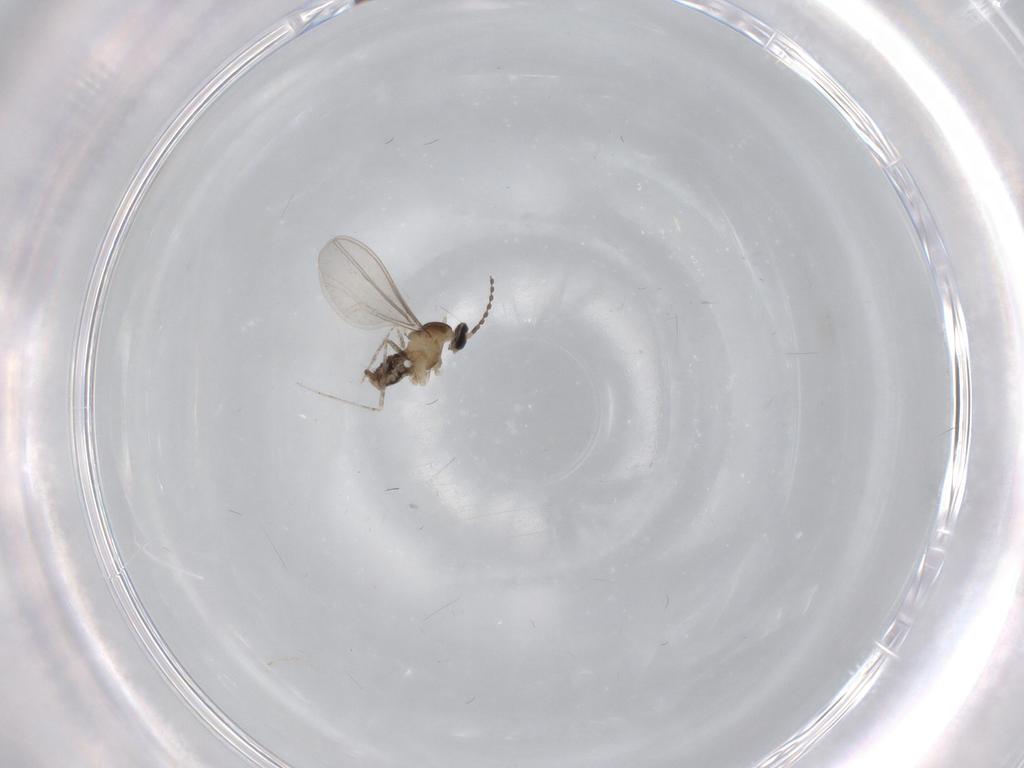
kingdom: Animalia
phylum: Arthropoda
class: Insecta
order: Diptera
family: Cecidomyiidae
